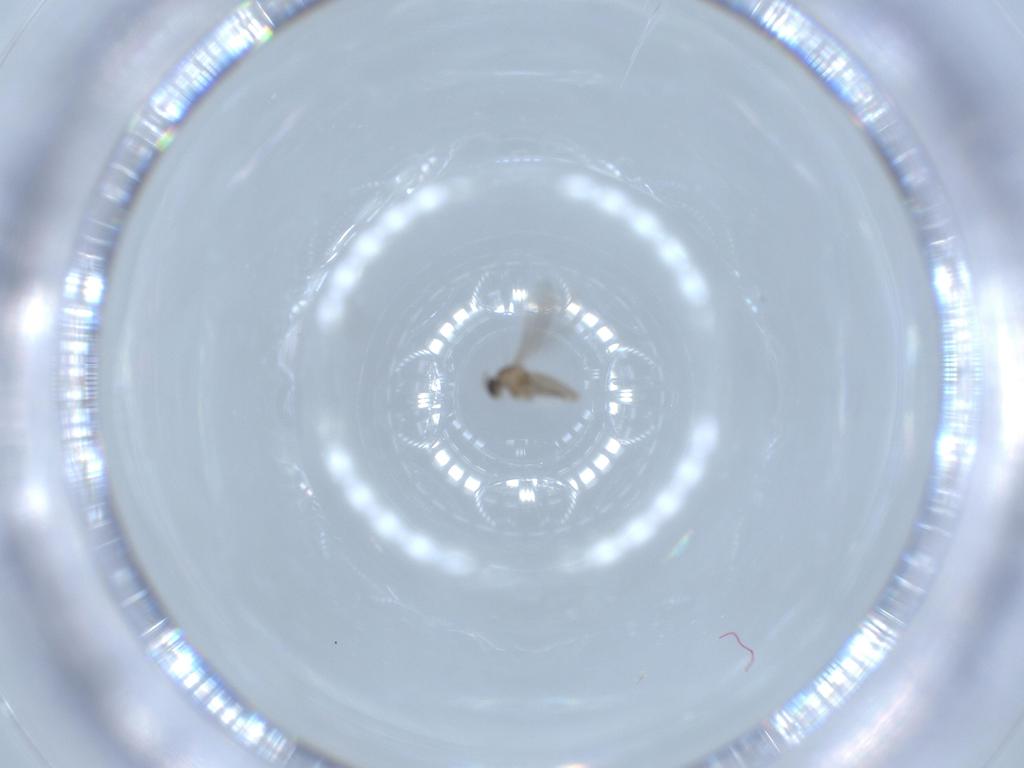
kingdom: Animalia
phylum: Arthropoda
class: Insecta
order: Diptera
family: Cecidomyiidae
